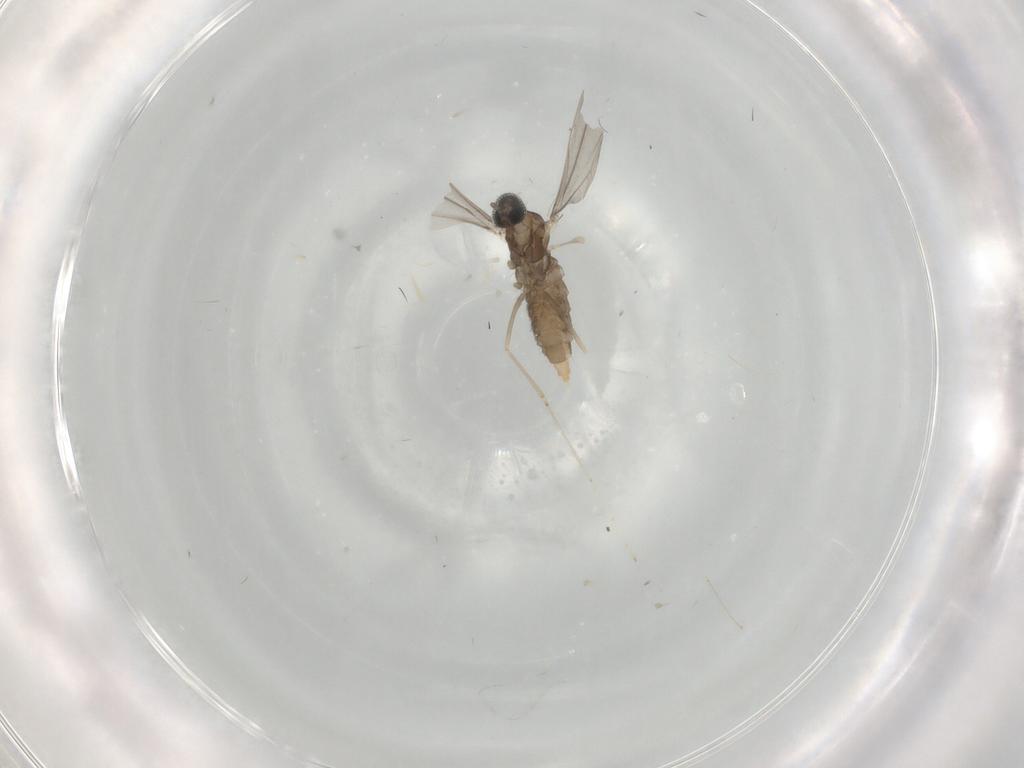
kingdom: Animalia
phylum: Arthropoda
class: Insecta
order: Diptera
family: Cecidomyiidae
